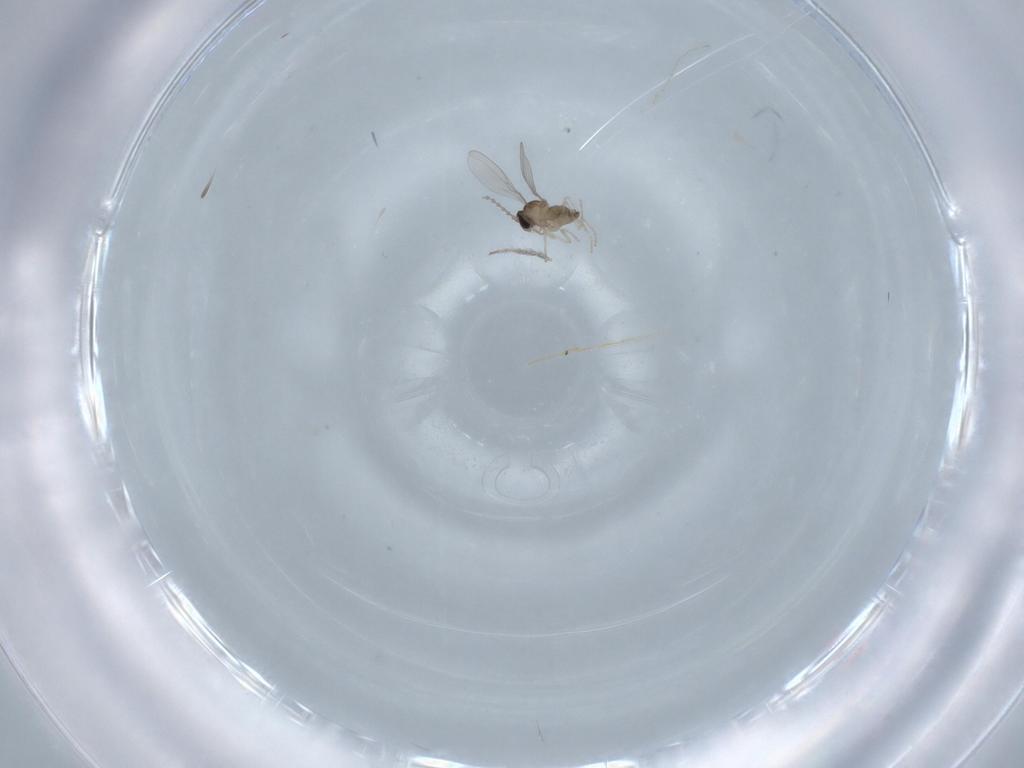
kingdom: Animalia
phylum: Arthropoda
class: Insecta
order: Diptera
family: Cecidomyiidae
